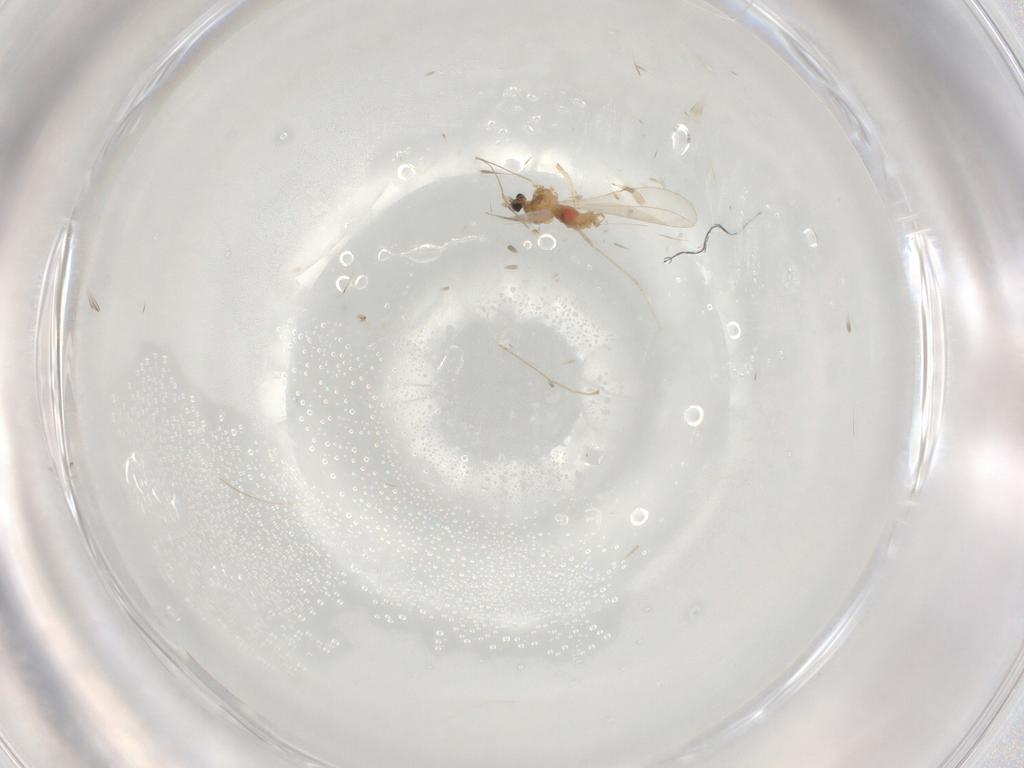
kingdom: Animalia
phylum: Arthropoda
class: Insecta
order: Diptera
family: Cecidomyiidae
